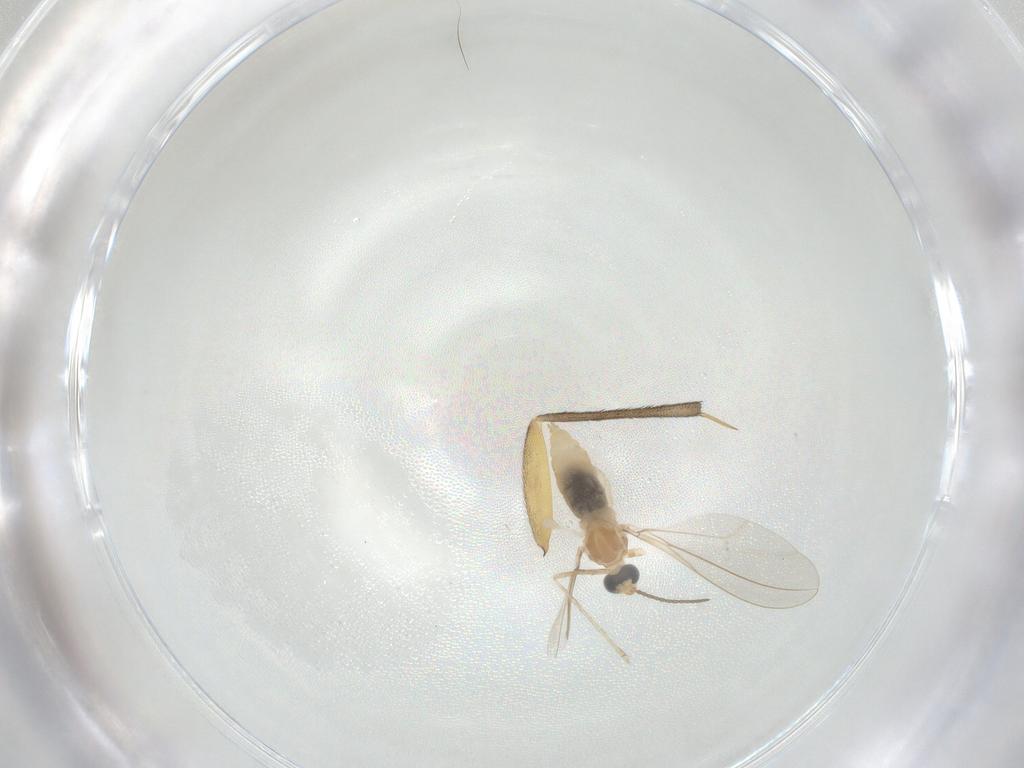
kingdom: Animalia
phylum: Arthropoda
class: Insecta
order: Diptera
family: Cecidomyiidae
